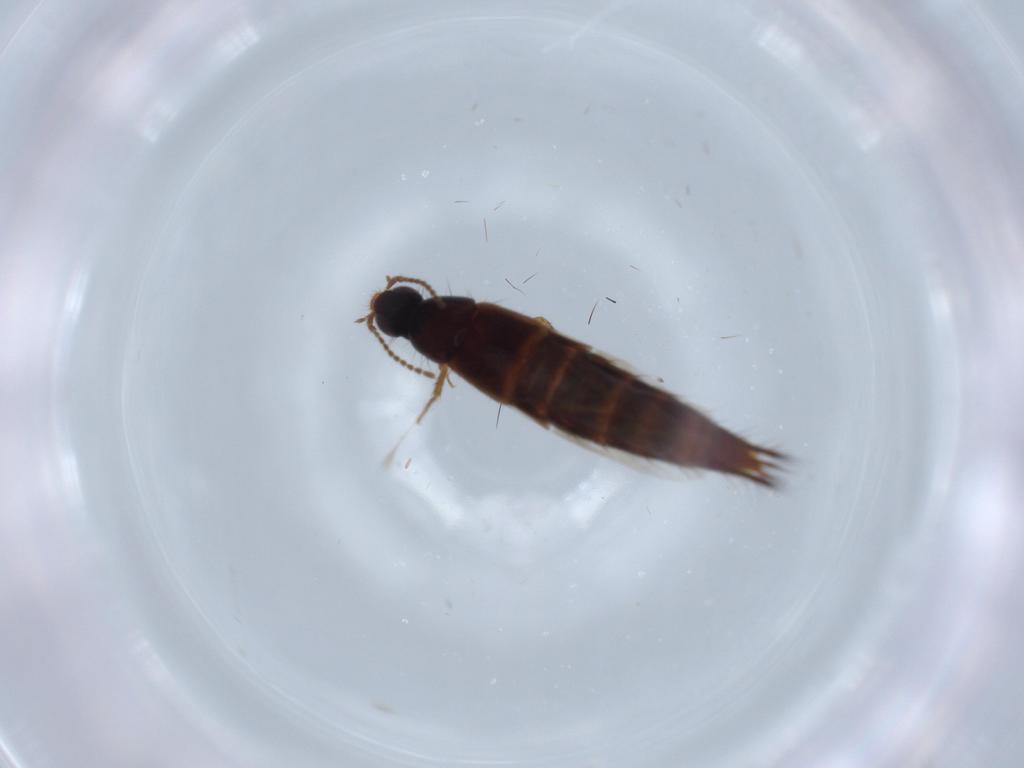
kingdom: Animalia
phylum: Arthropoda
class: Insecta
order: Coleoptera
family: Staphylinidae
